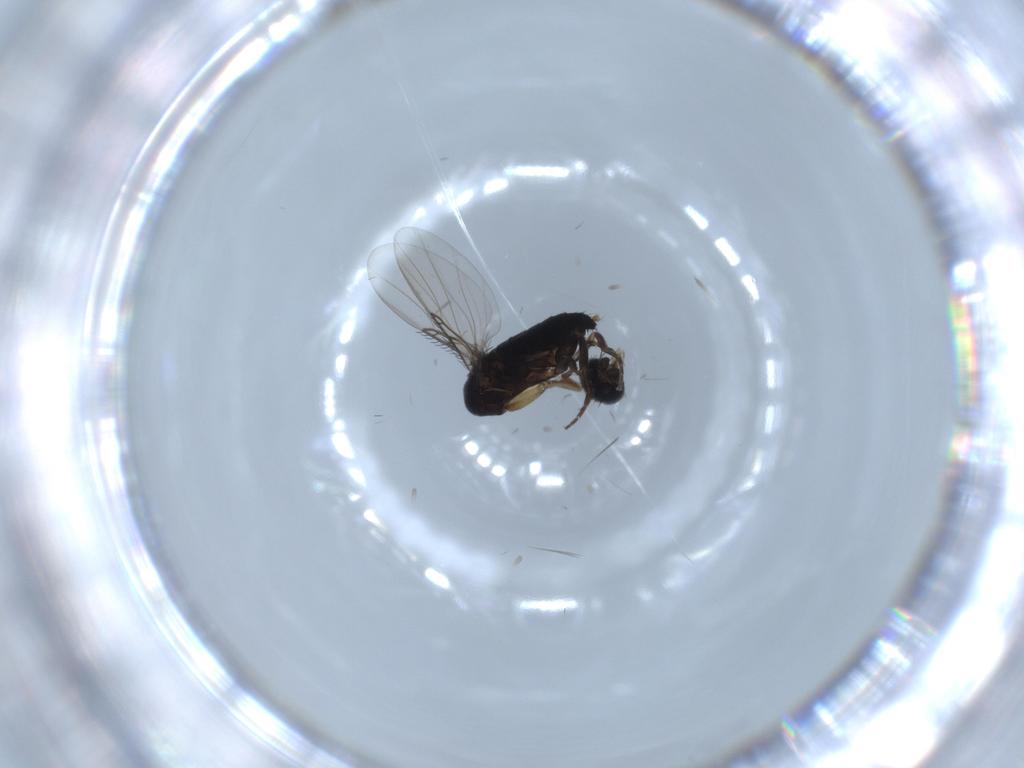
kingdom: Animalia
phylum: Arthropoda
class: Insecta
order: Diptera
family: Phoridae
